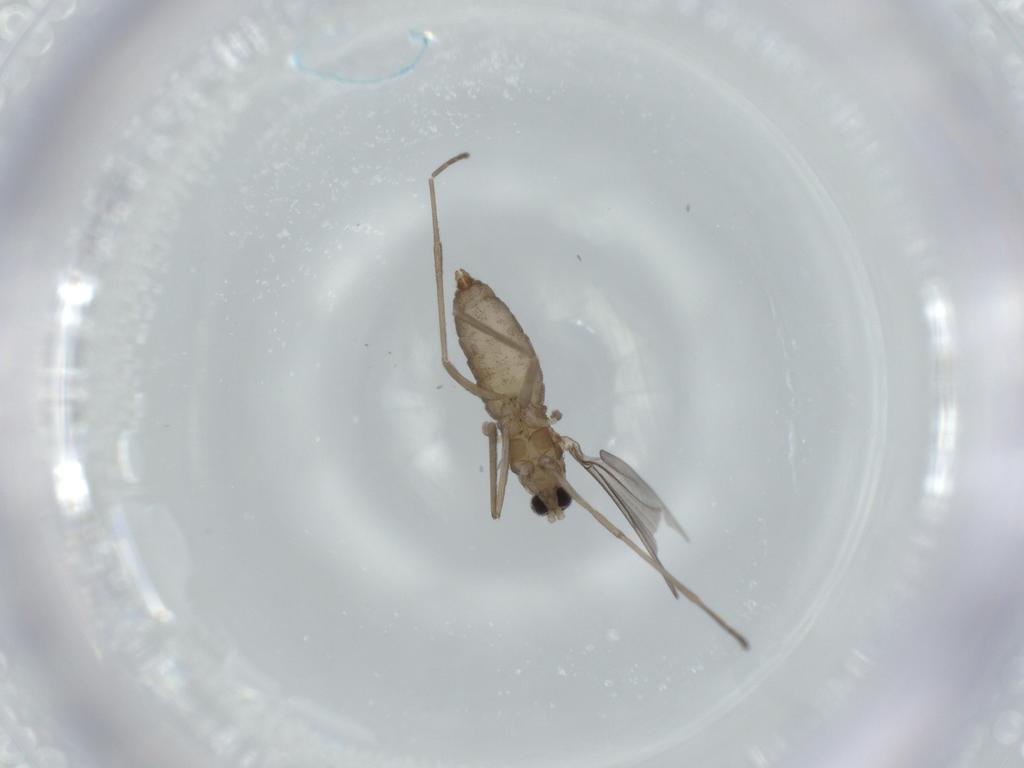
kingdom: Animalia
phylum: Arthropoda
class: Insecta
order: Diptera
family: Cecidomyiidae
